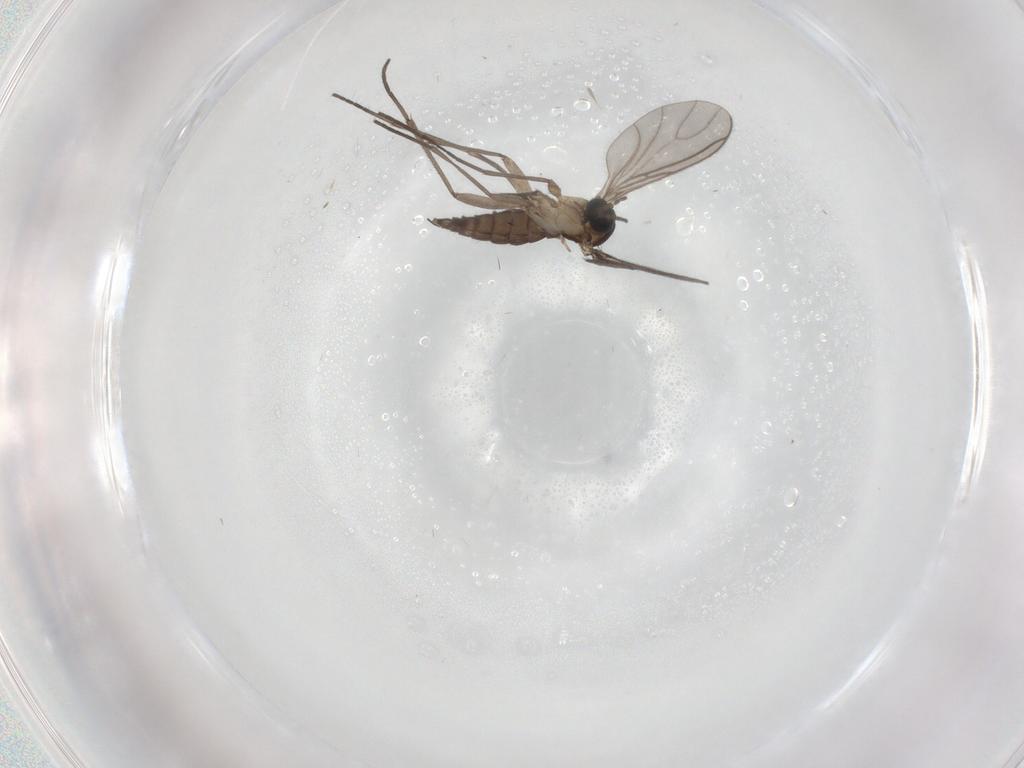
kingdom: Animalia
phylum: Arthropoda
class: Insecta
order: Diptera
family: Sciaridae
